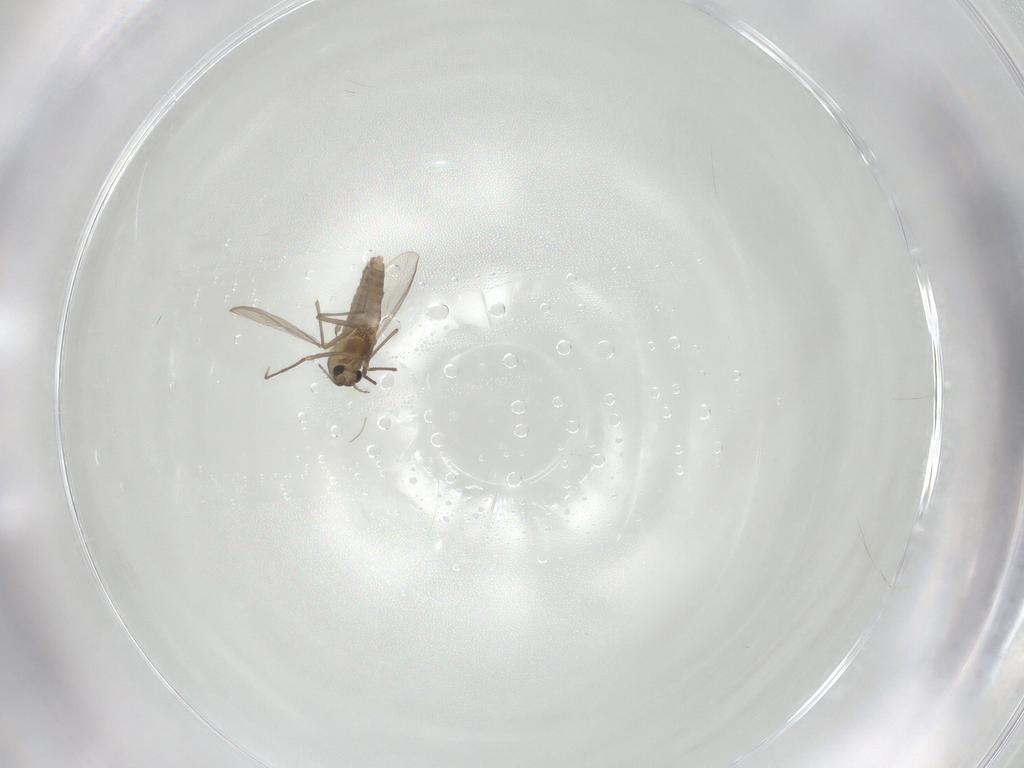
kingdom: Animalia
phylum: Arthropoda
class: Insecta
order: Diptera
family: Chironomidae
